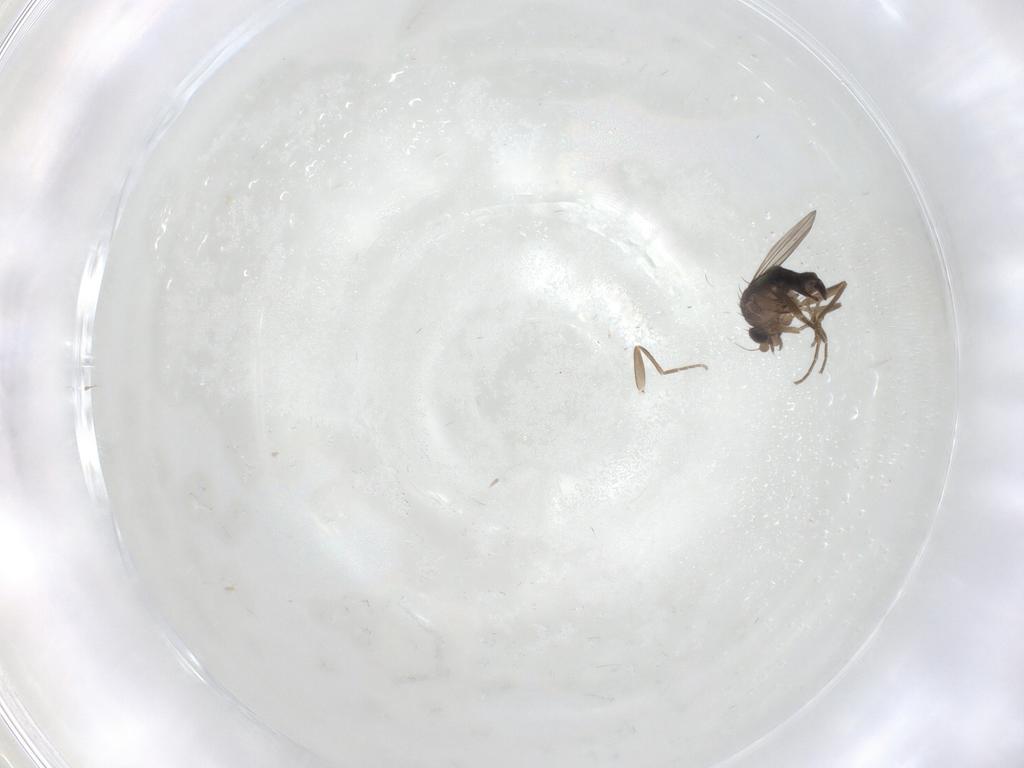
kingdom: Animalia
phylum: Arthropoda
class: Insecta
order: Diptera
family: Phoridae
